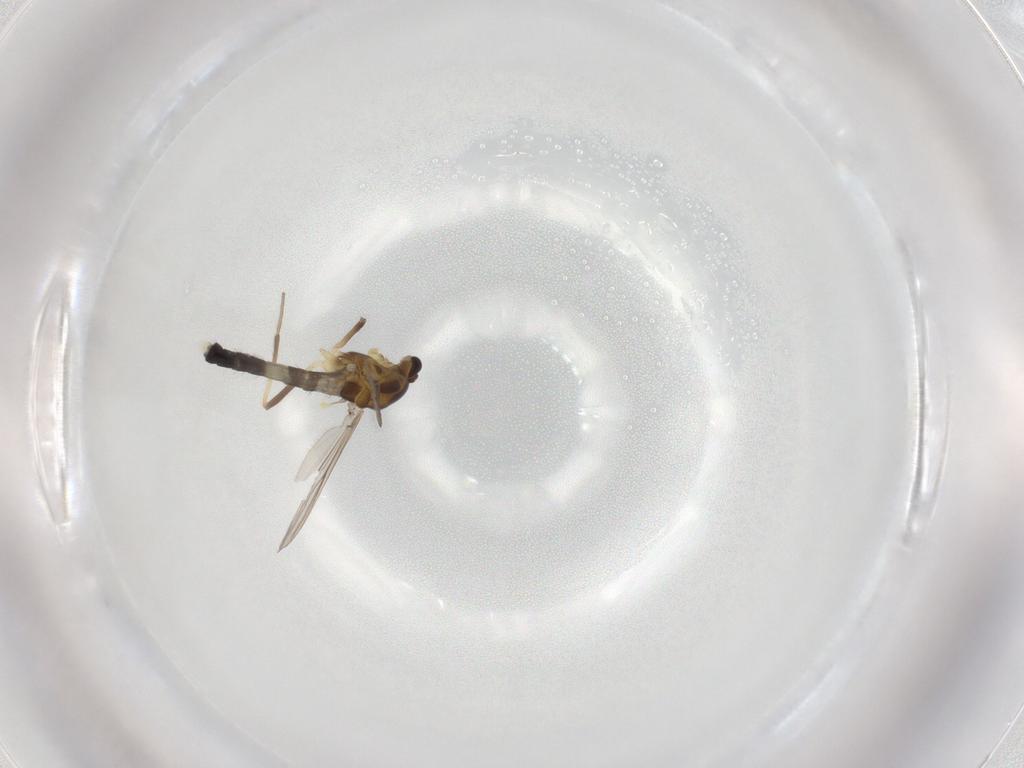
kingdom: Animalia
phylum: Arthropoda
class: Insecta
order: Diptera
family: Chironomidae
